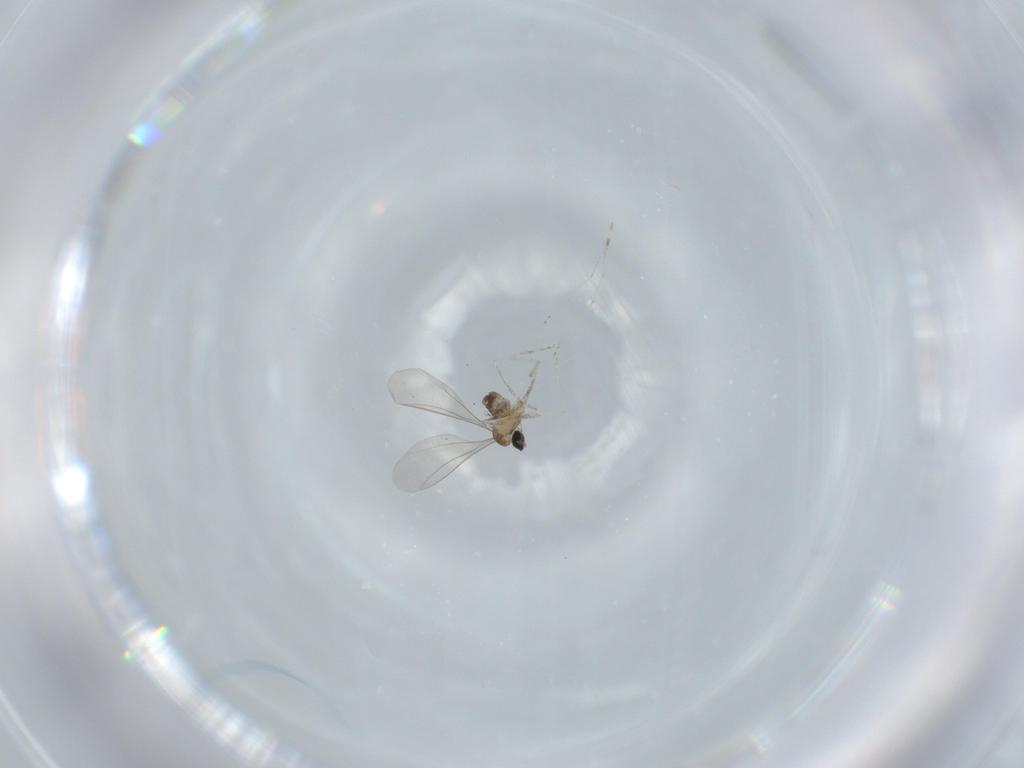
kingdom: Animalia
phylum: Arthropoda
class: Insecta
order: Diptera
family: Cecidomyiidae
